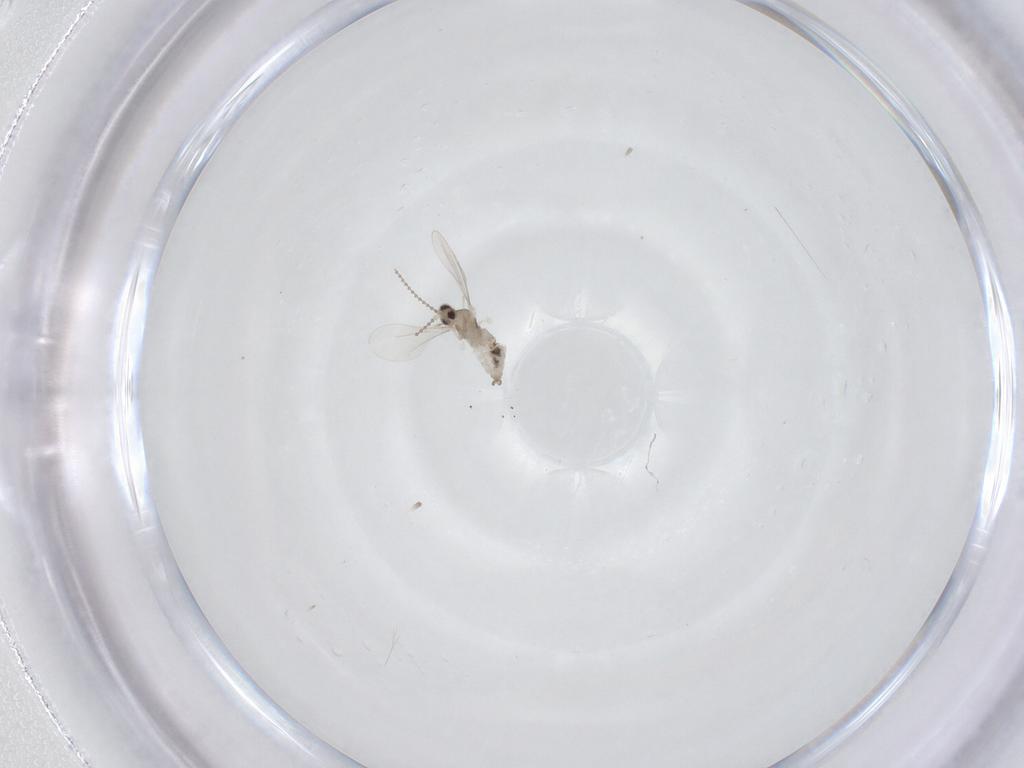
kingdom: Animalia
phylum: Arthropoda
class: Insecta
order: Diptera
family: Cecidomyiidae
